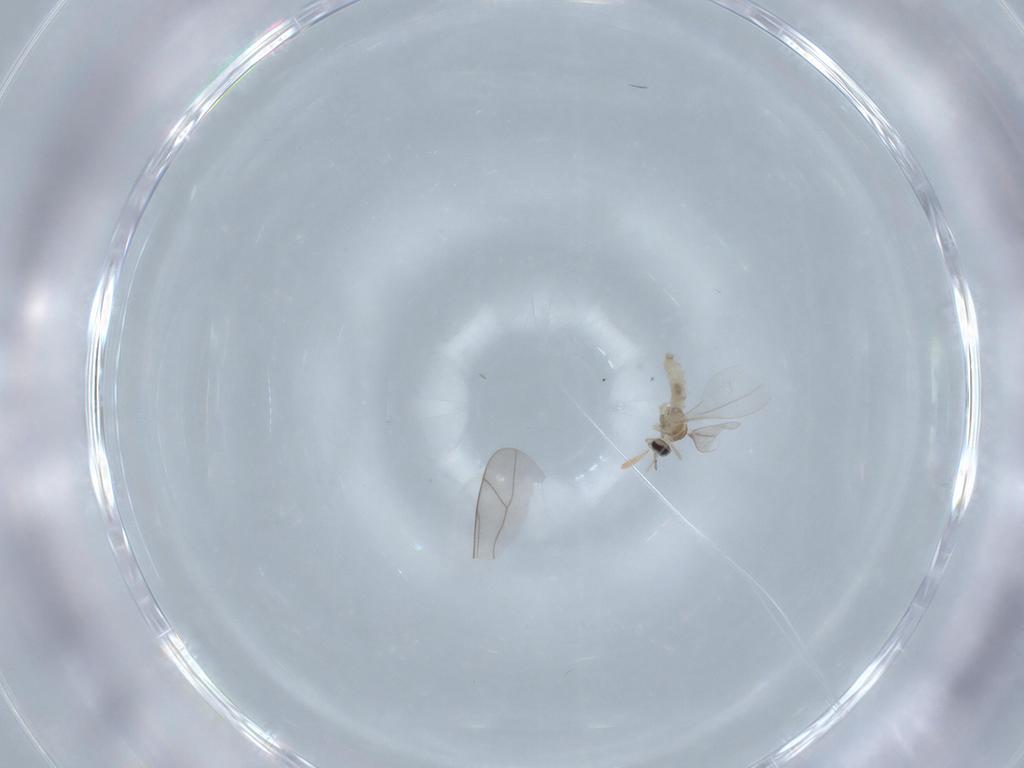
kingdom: Animalia
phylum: Arthropoda
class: Insecta
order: Diptera
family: Cecidomyiidae
